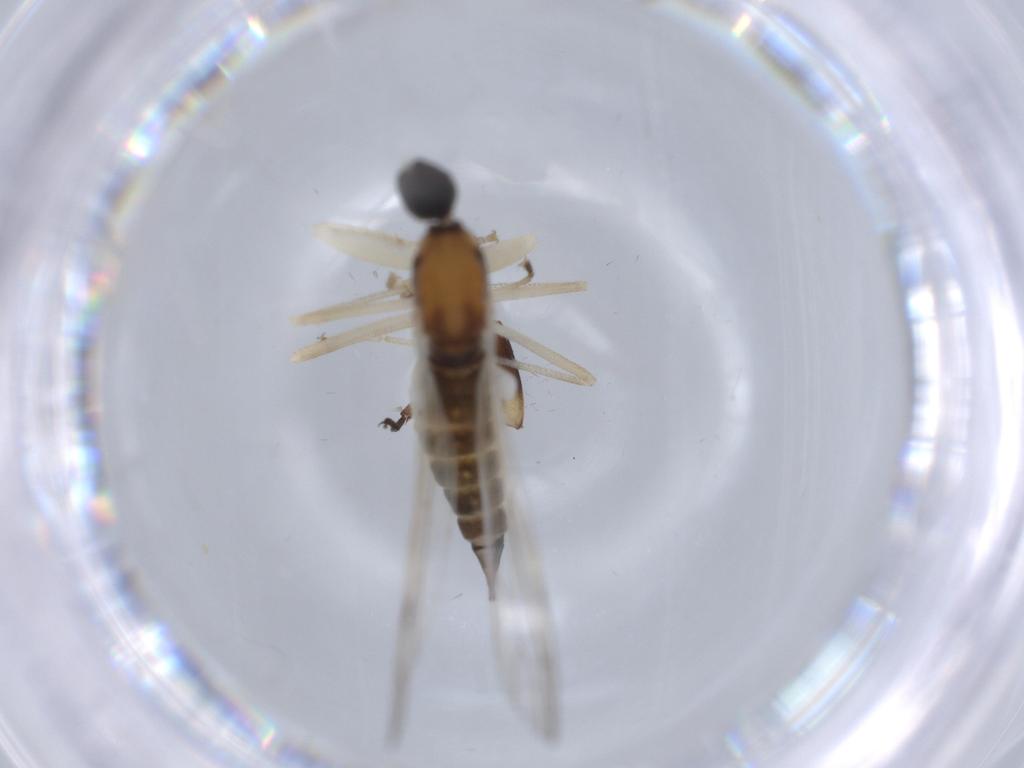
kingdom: Animalia
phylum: Arthropoda
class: Insecta
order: Diptera
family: Empididae
